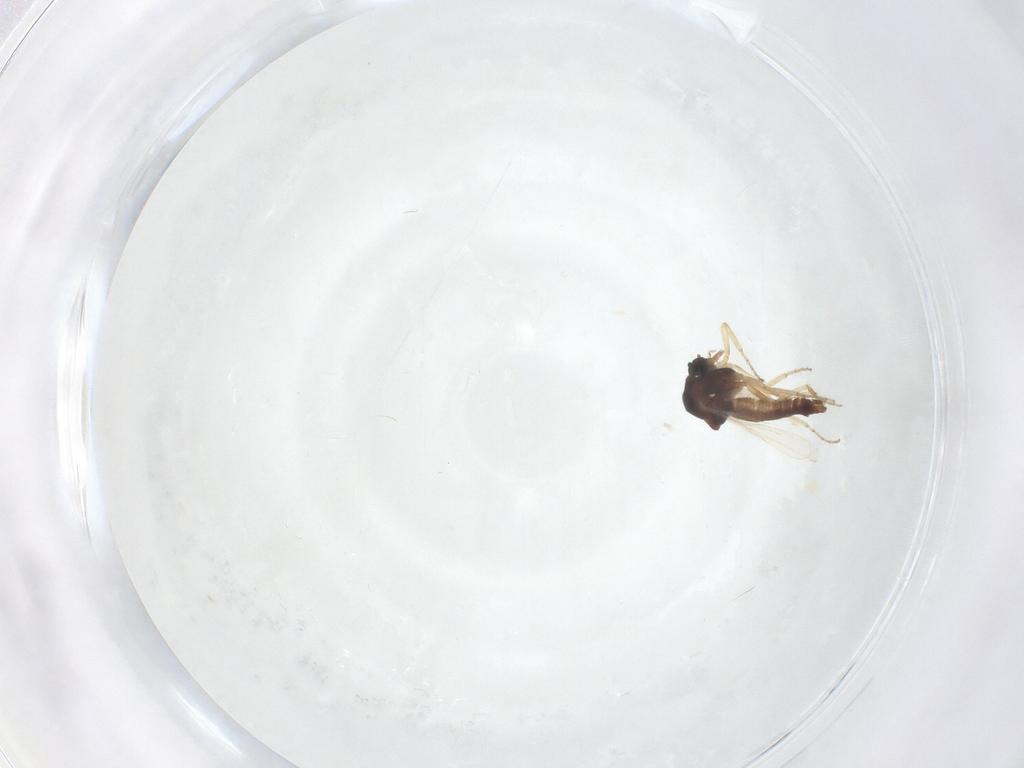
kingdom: Animalia
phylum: Arthropoda
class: Insecta
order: Diptera
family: Ceratopogonidae
